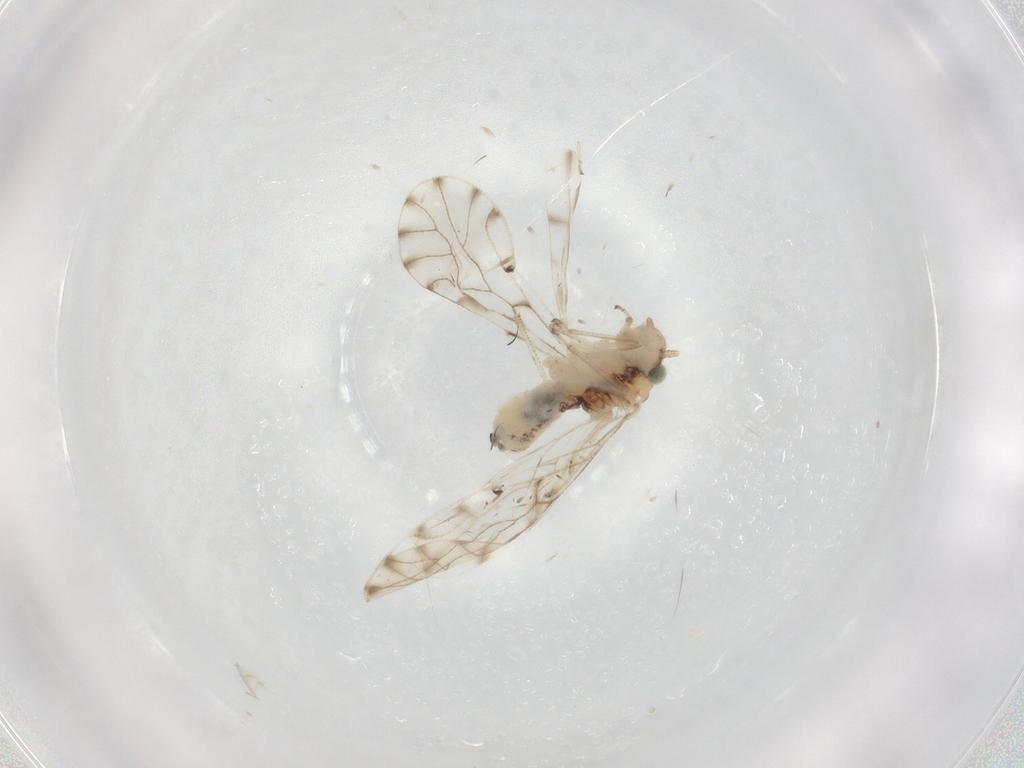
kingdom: Animalia
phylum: Arthropoda
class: Insecta
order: Psocodea
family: Ectopsocidae
